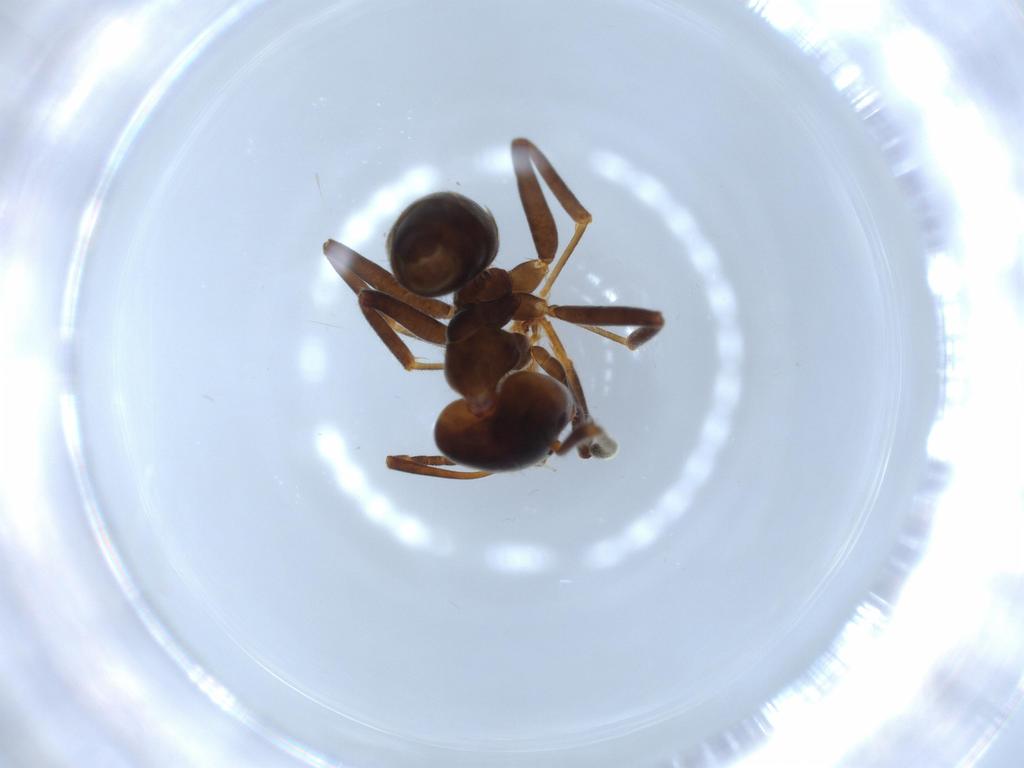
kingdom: Animalia
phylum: Arthropoda
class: Insecta
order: Hymenoptera
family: Formicidae
